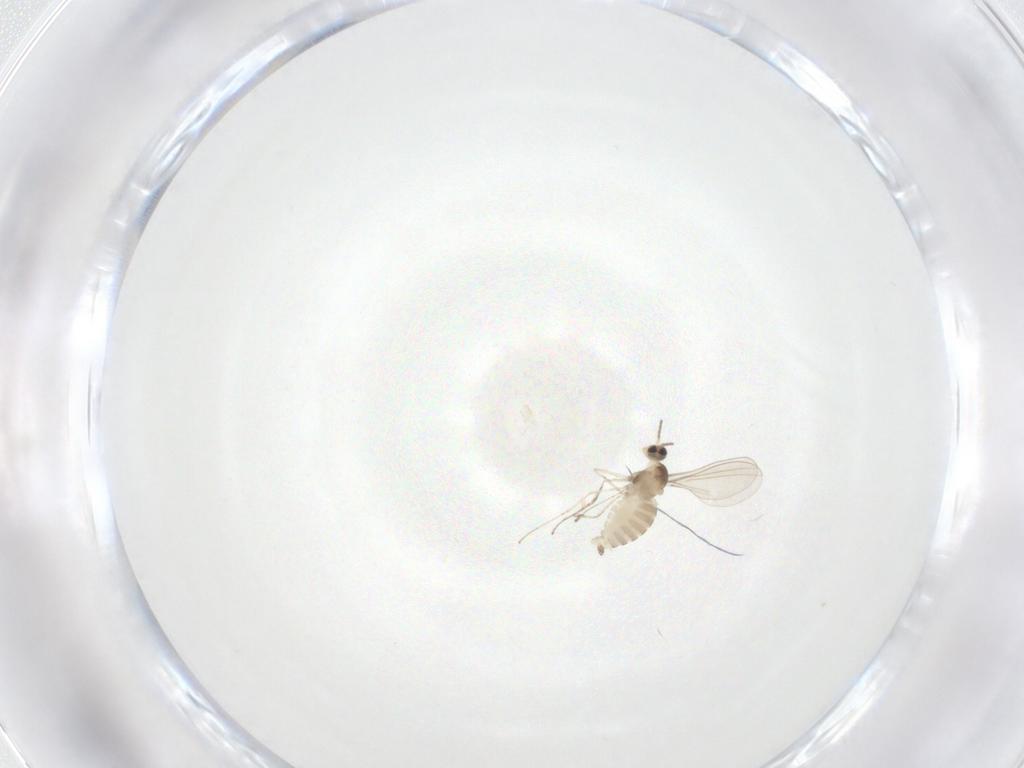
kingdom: Animalia
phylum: Arthropoda
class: Insecta
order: Diptera
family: Cecidomyiidae
